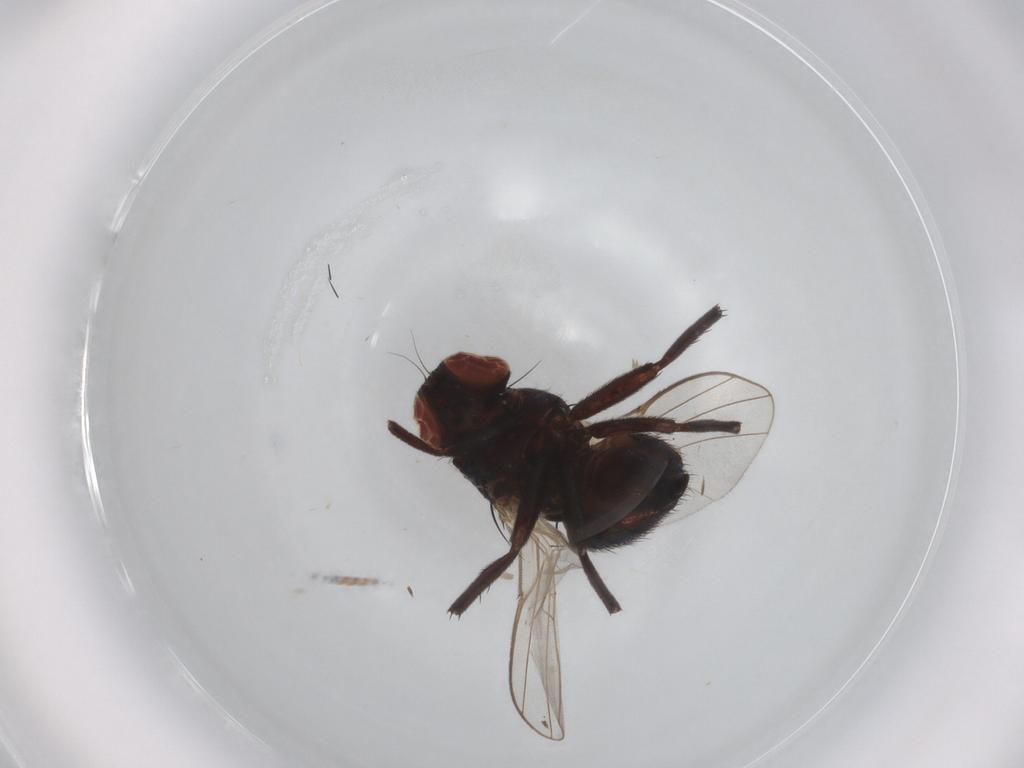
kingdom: Animalia
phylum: Arthropoda
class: Insecta
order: Diptera
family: Agromyzidae
